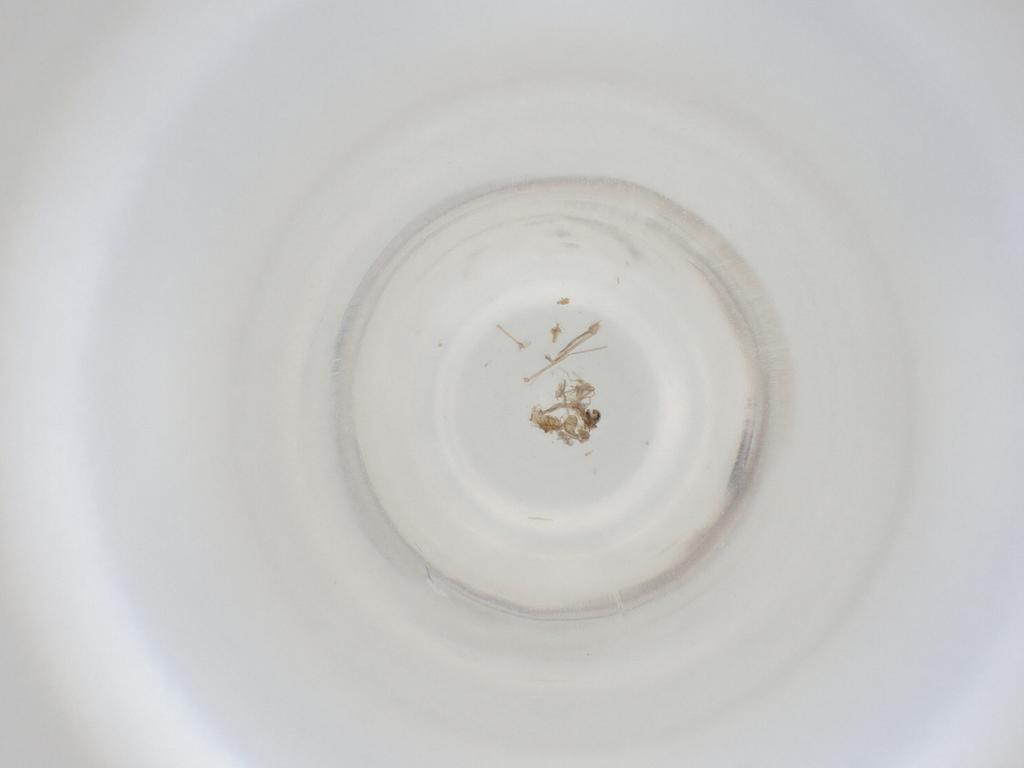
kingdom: Animalia
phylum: Arthropoda
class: Insecta
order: Diptera
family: Cecidomyiidae
